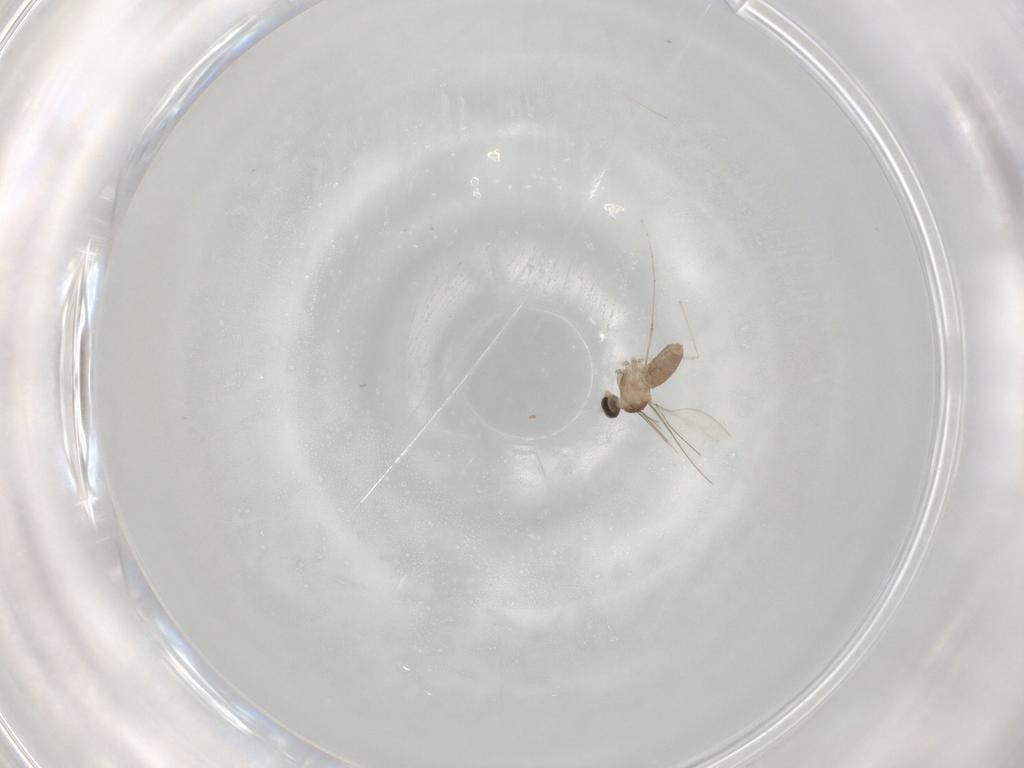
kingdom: Animalia
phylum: Arthropoda
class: Insecta
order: Diptera
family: Cecidomyiidae
